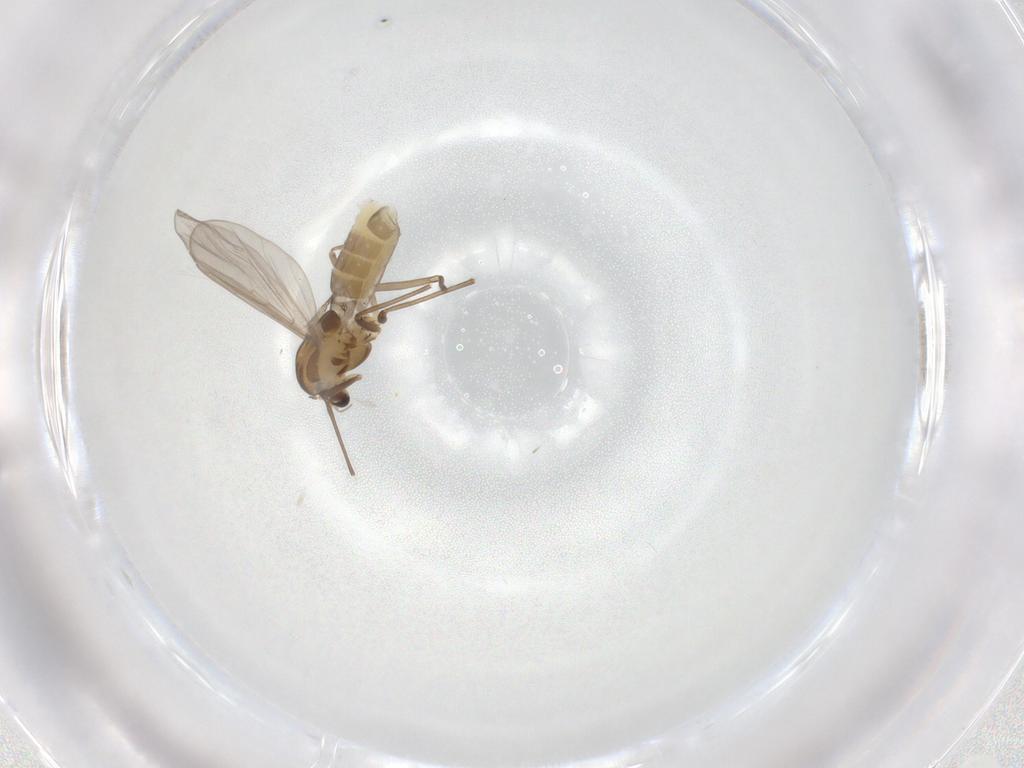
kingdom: Animalia
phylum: Arthropoda
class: Insecta
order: Diptera
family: Chironomidae
